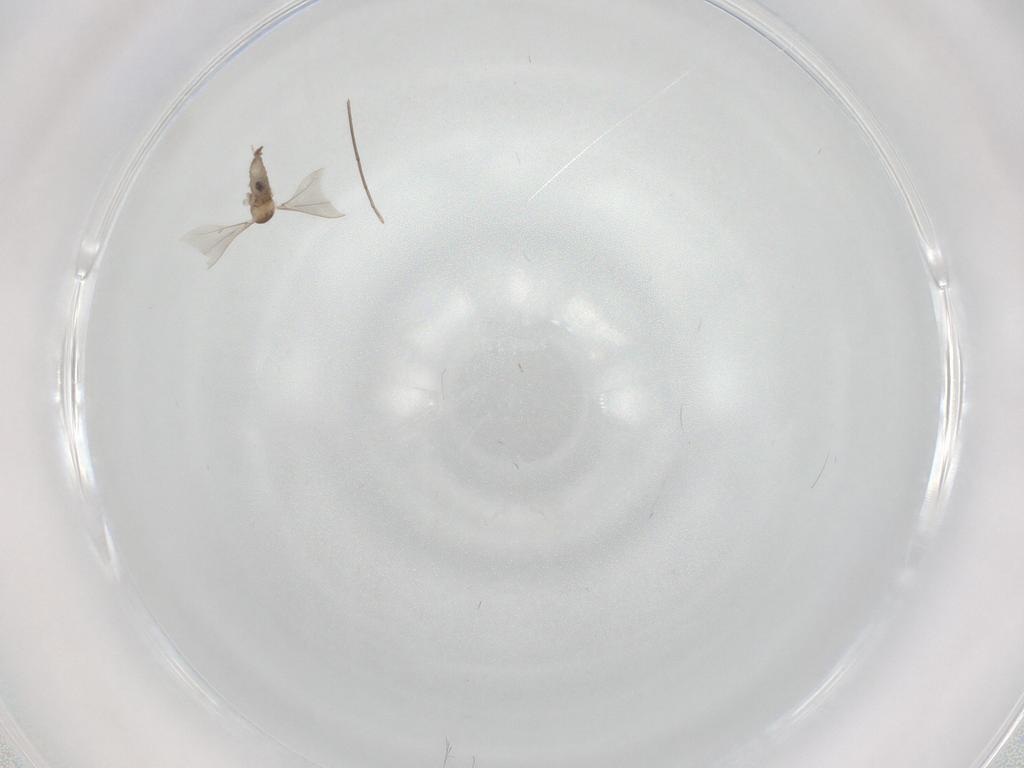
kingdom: Animalia
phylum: Arthropoda
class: Insecta
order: Diptera
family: Cecidomyiidae
